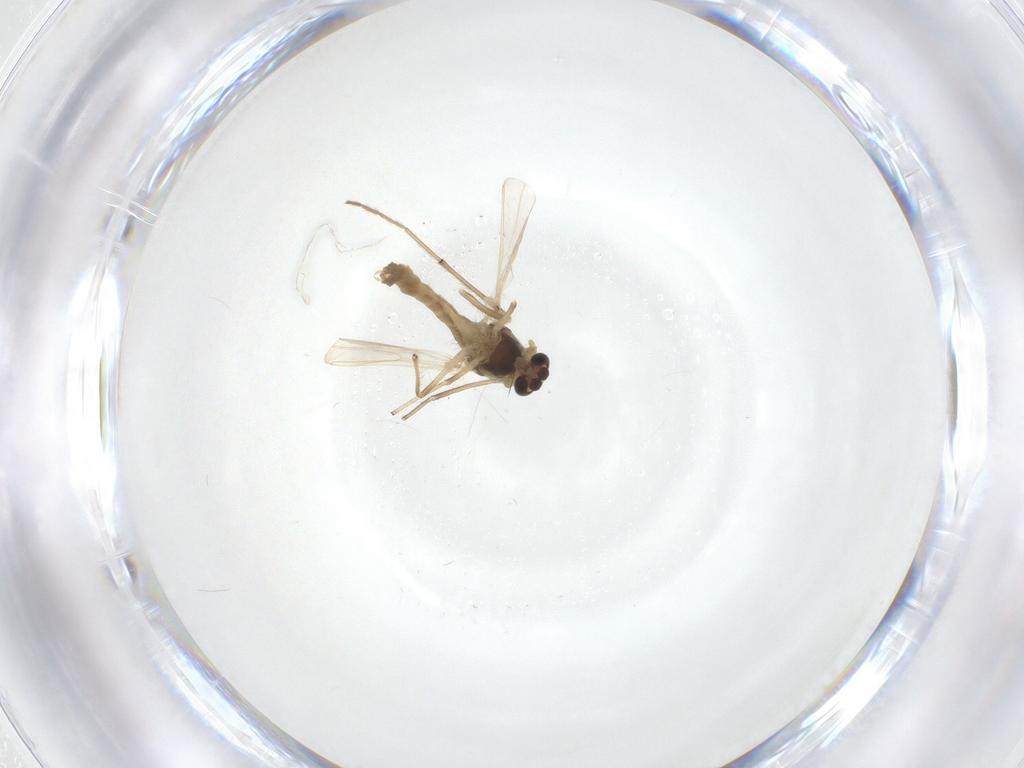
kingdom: Animalia
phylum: Arthropoda
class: Insecta
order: Diptera
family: Chironomidae
